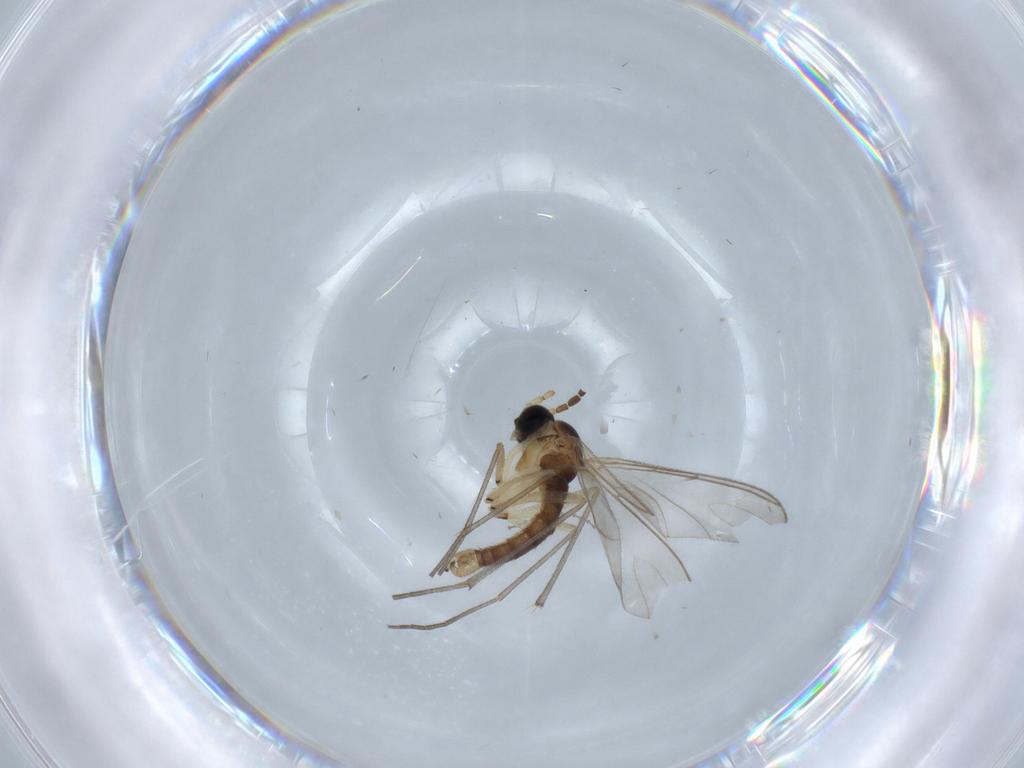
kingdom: Animalia
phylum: Arthropoda
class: Insecta
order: Diptera
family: Sciaridae
